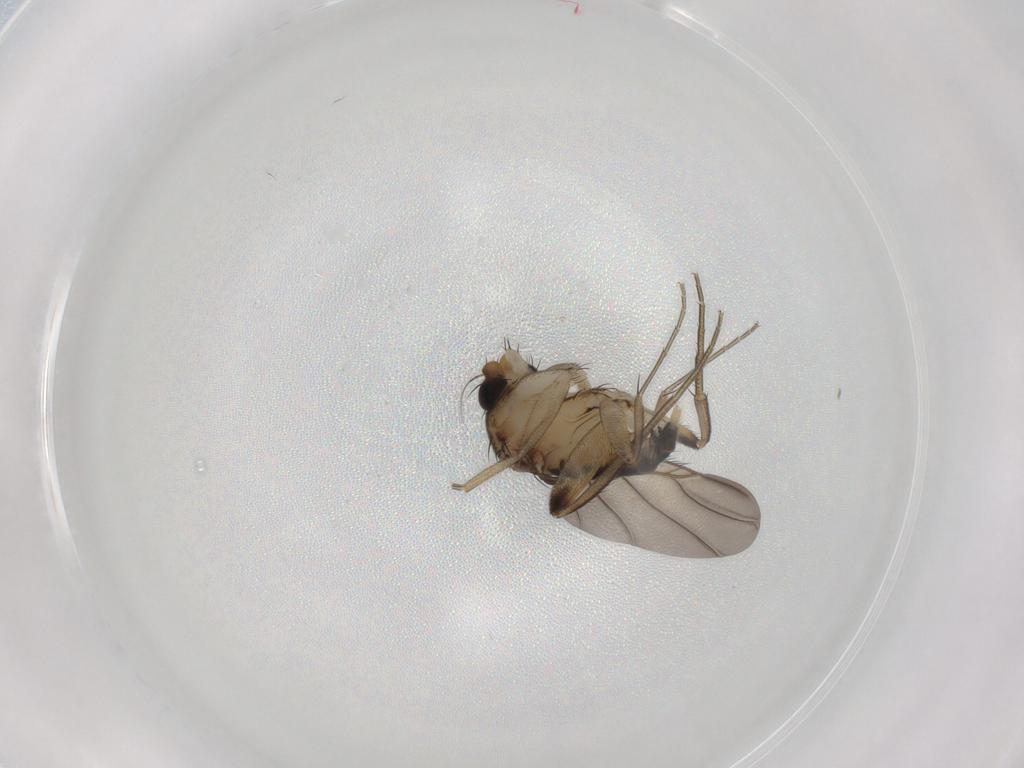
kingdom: Animalia
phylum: Arthropoda
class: Insecta
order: Diptera
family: Phoridae
